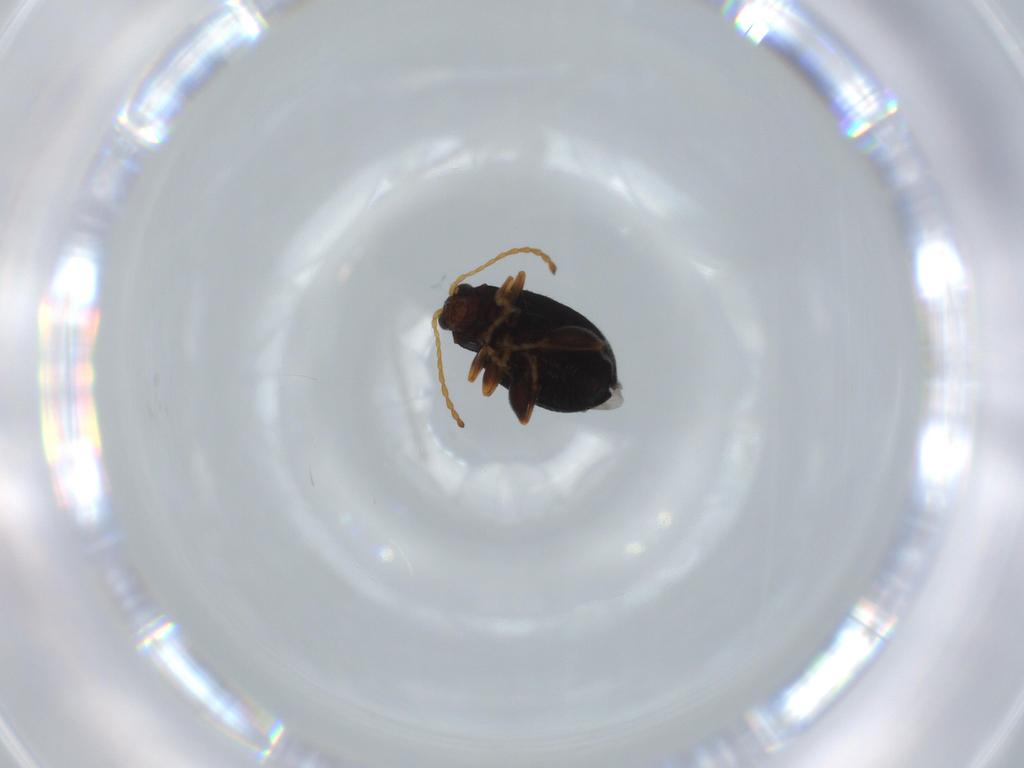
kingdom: Animalia
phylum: Arthropoda
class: Insecta
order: Coleoptera
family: Chrysomelidae
